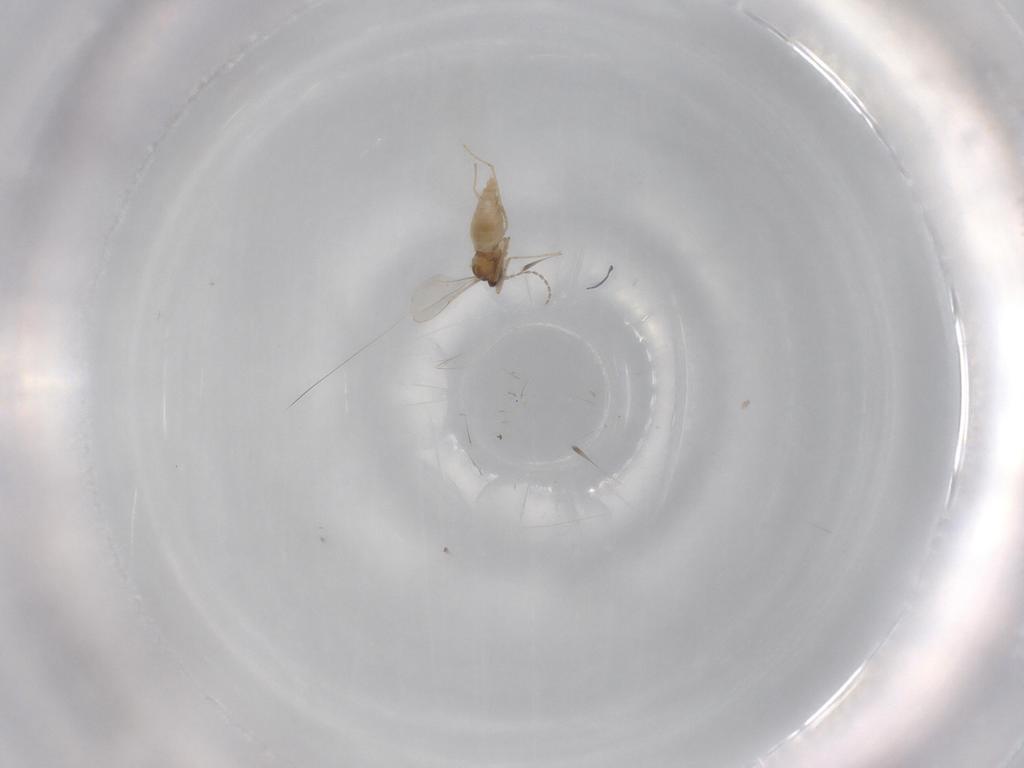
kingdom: Animalia
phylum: Arthropoda
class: Insecta
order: Diptera
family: Cecidomyiidae
